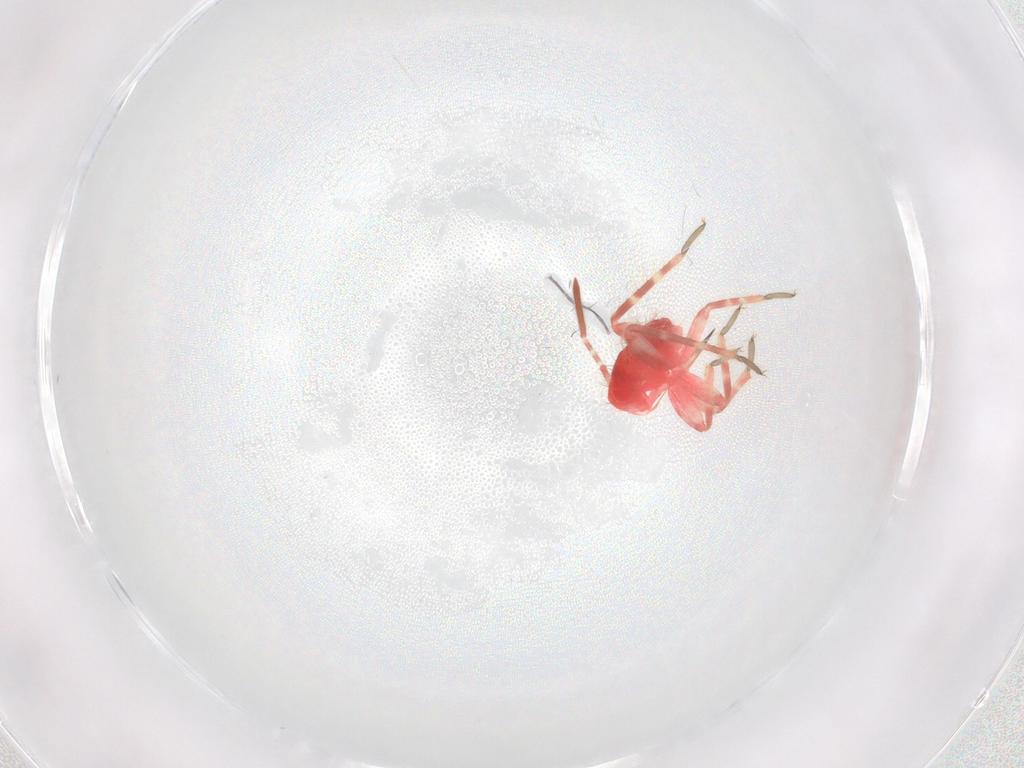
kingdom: Animalia
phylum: Arthropoda
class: Insecta
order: Hemiptera
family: Miridae
